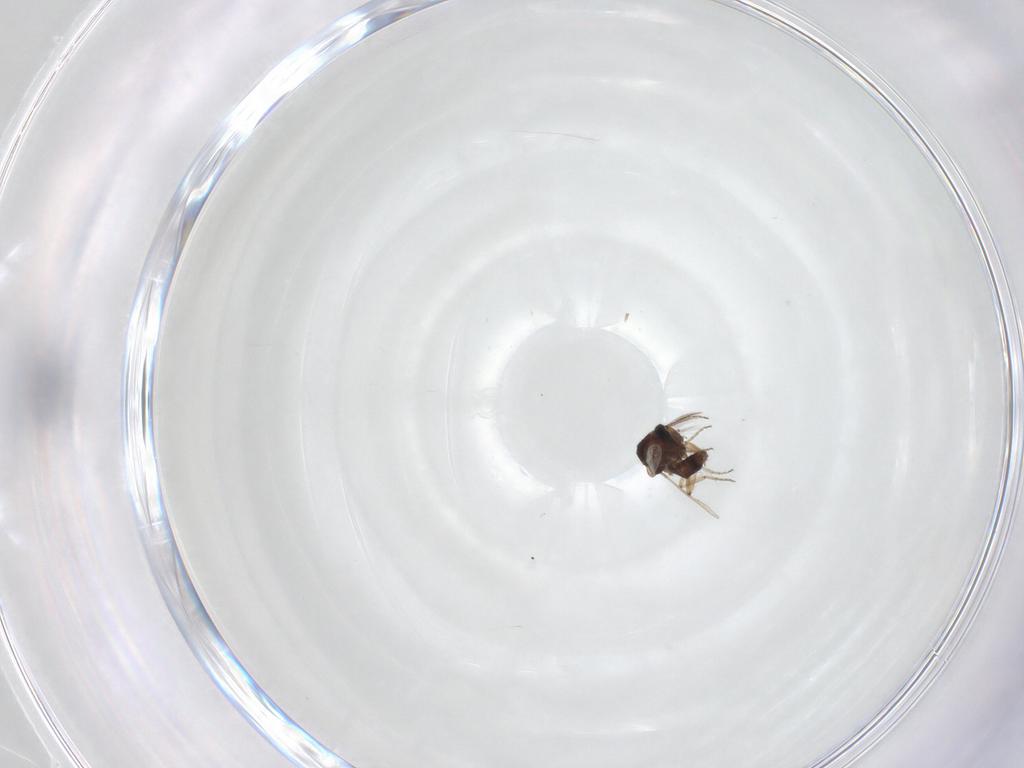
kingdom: Animalia
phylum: Arthropoda
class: Insecta
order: Diptera
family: Ceratopogonidae
